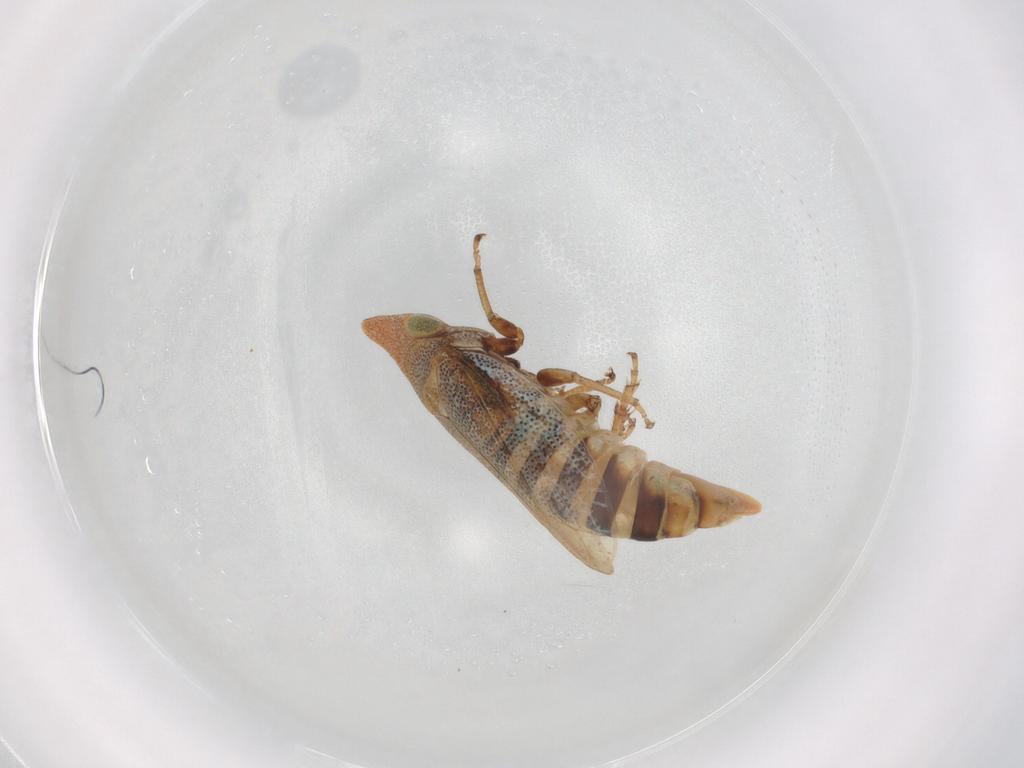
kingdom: Animalia
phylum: Arthropoda
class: Insecta
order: Hemiptera
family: Cicadellidae
